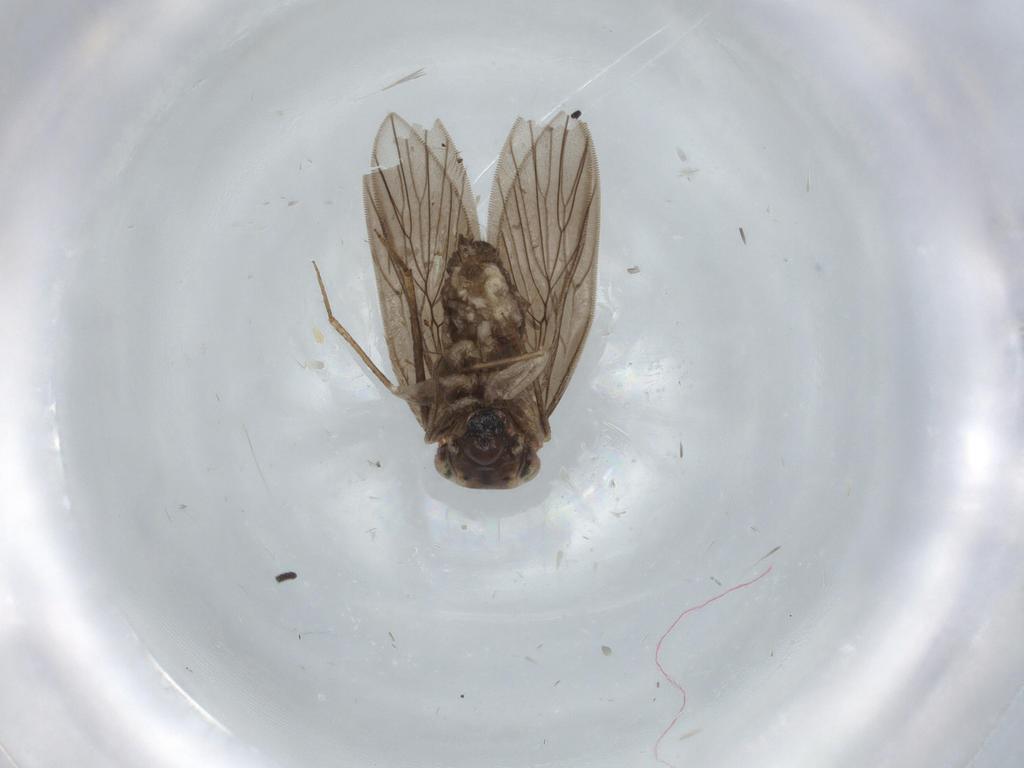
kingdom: Animalia
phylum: Arthropoda
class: Insecta
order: Psocodea
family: Lepidopsocidae
